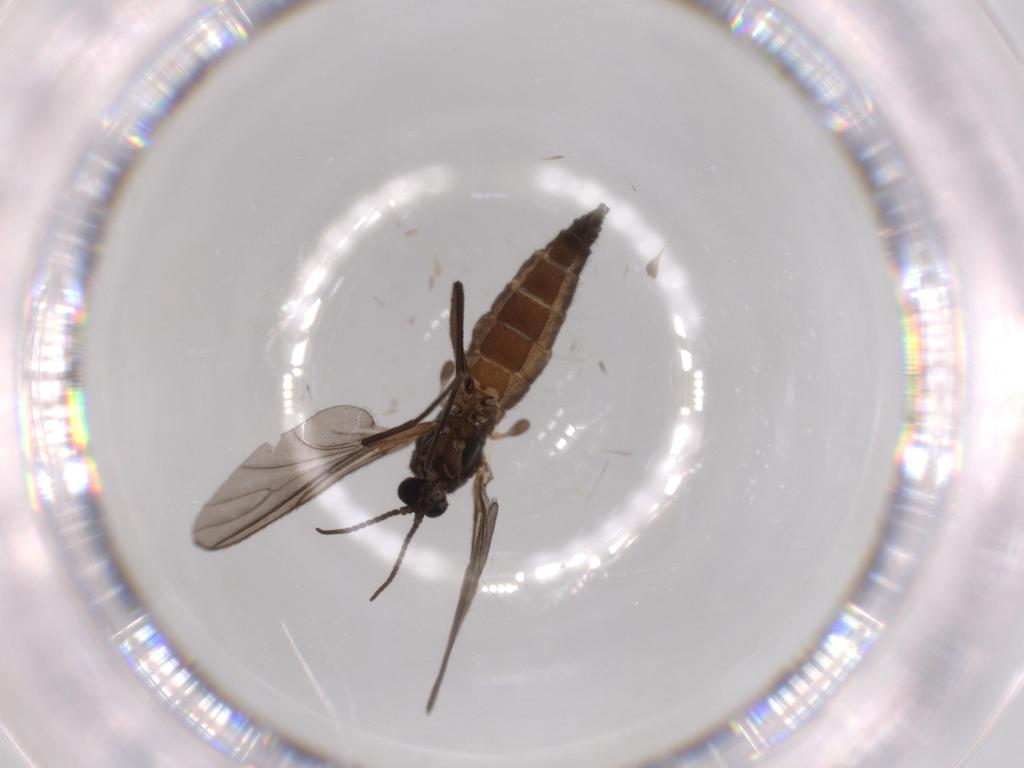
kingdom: Animalia
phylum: Arthropoda
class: Insecta
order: Diptera
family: Sciaridae
